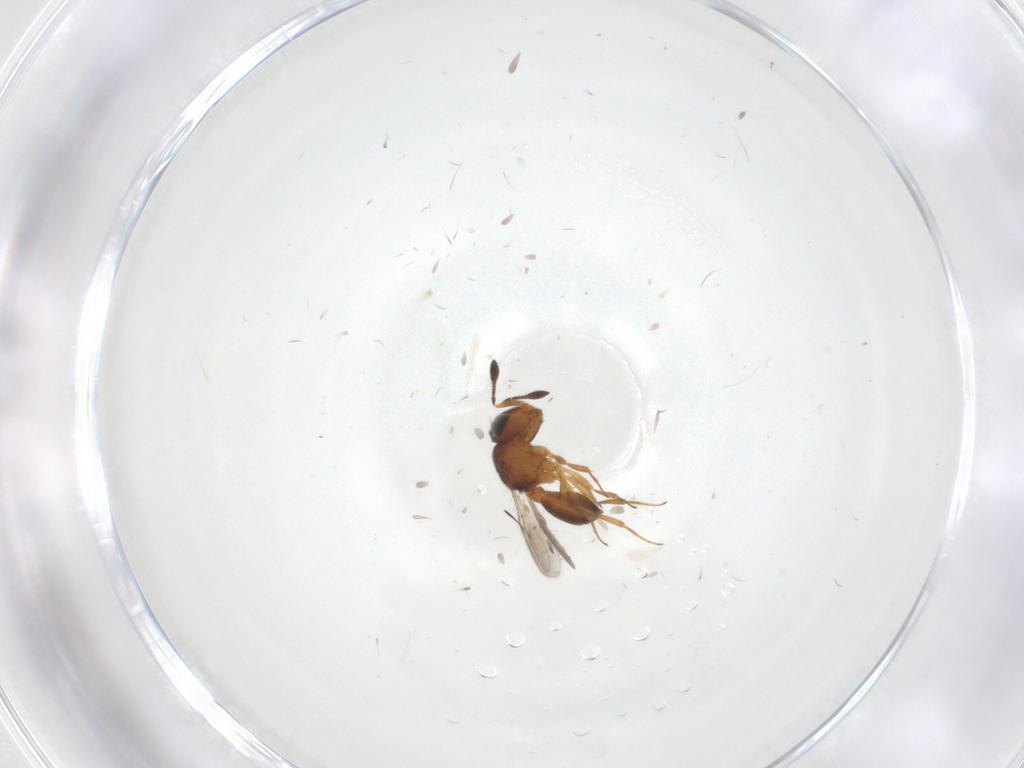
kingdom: Animalia
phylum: Arthropoda
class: Insecta
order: Hymenoptera
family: Scelionidae
